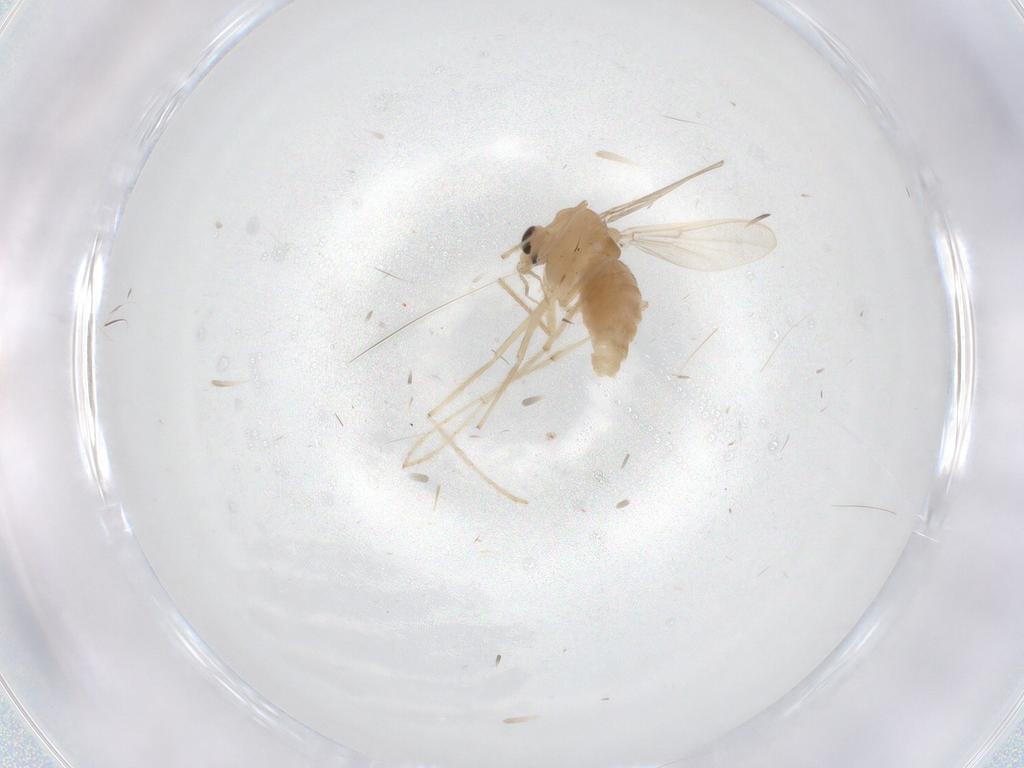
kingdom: Animalia
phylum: Arthropoda
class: Insecta
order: Diptera
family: Chironomidae
